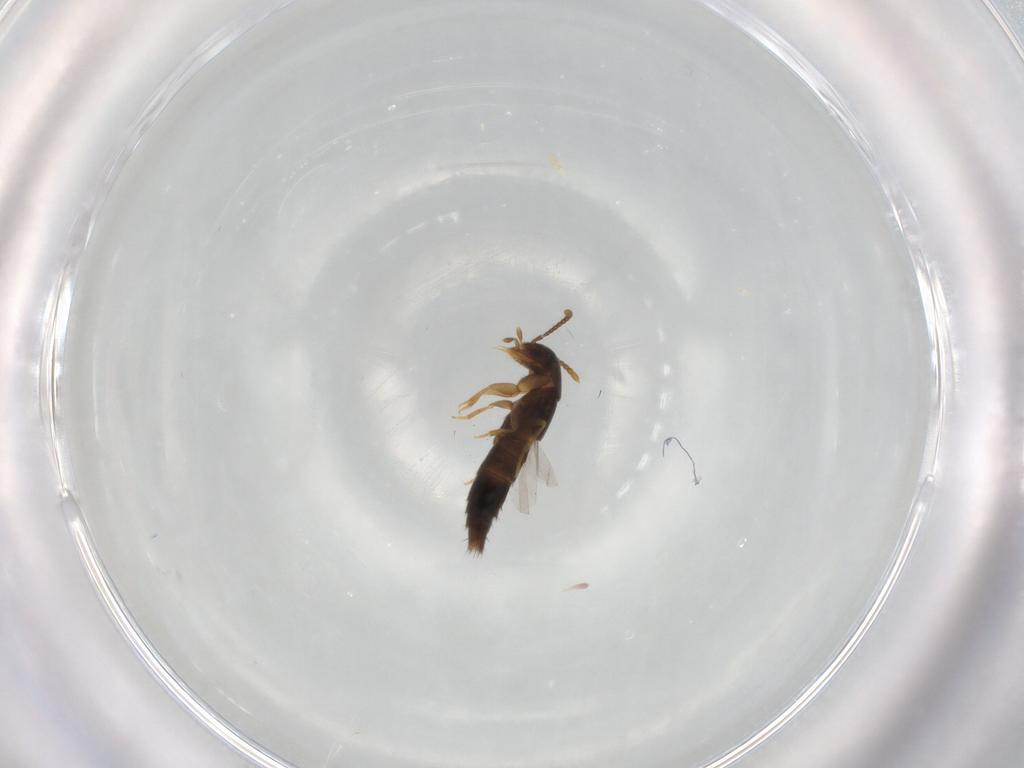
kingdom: Animalia
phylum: Arthropoda
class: Insecta
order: Coleoptera
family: Staphylinidae
